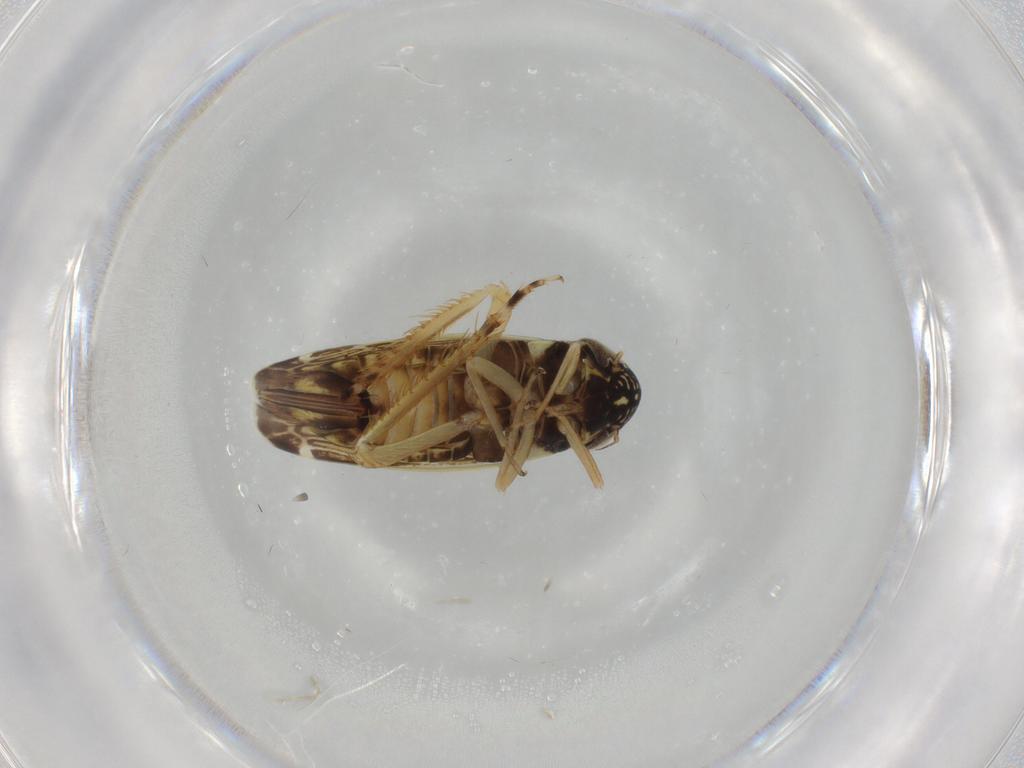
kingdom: Animalia
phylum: Arthropoda
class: Insecta
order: Hemiptera
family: Cicadellidae
